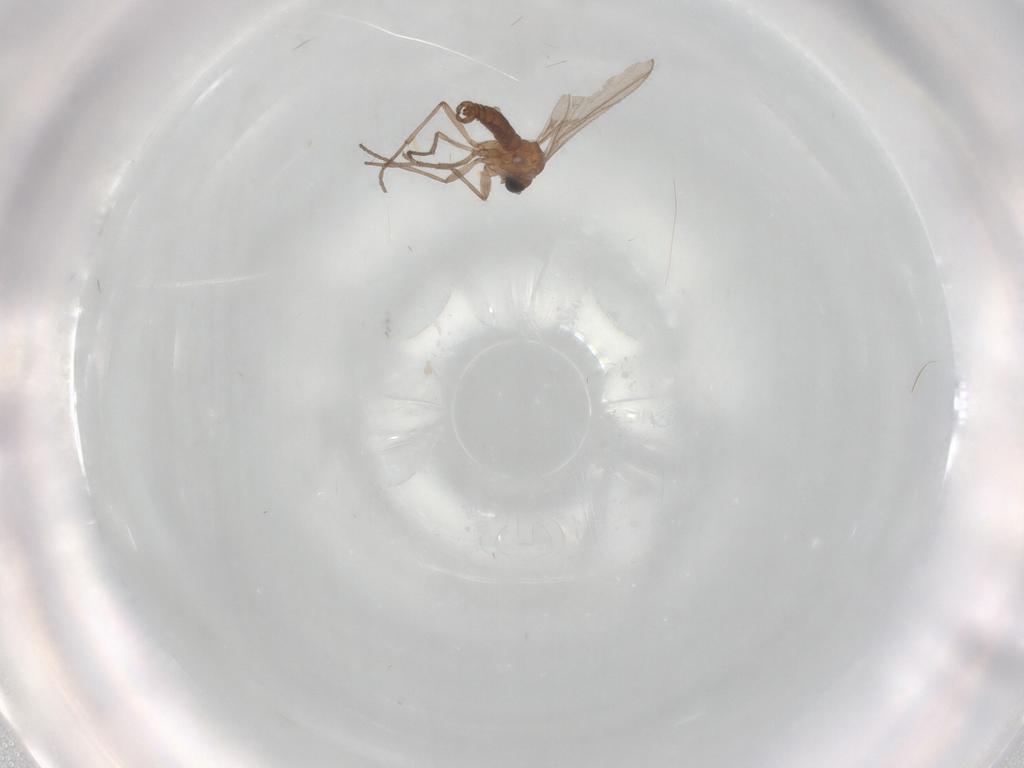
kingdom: Animalia
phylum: Arthropoda
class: Insecta
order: Diptera
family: Sciaridae
